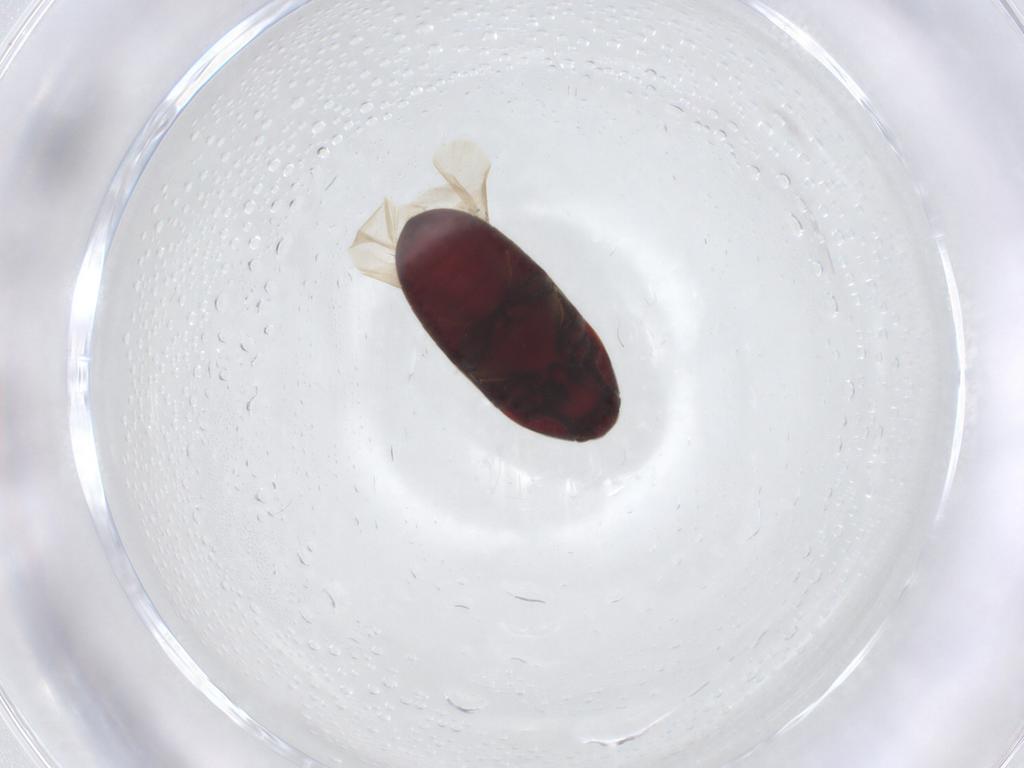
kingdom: Animalia
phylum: Arthropoda
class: Insecta
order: Coleoptera
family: Throscidae
